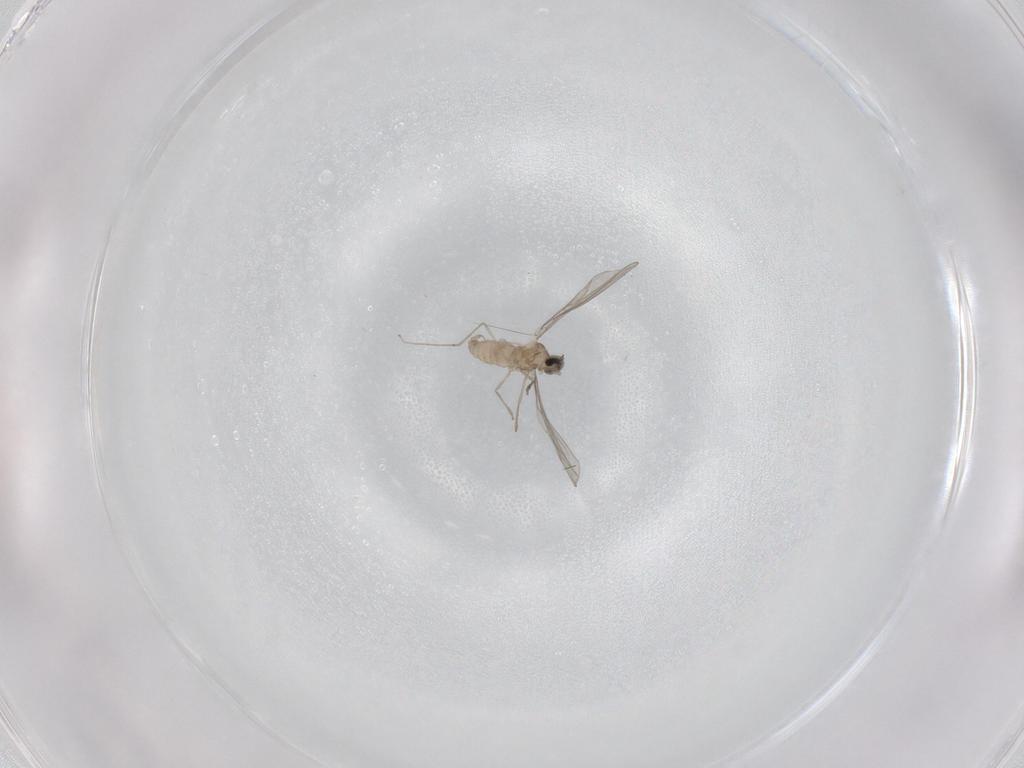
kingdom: Animalia
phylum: Arthropoda
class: Insecta
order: Diptera
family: Cecidomyiidae
